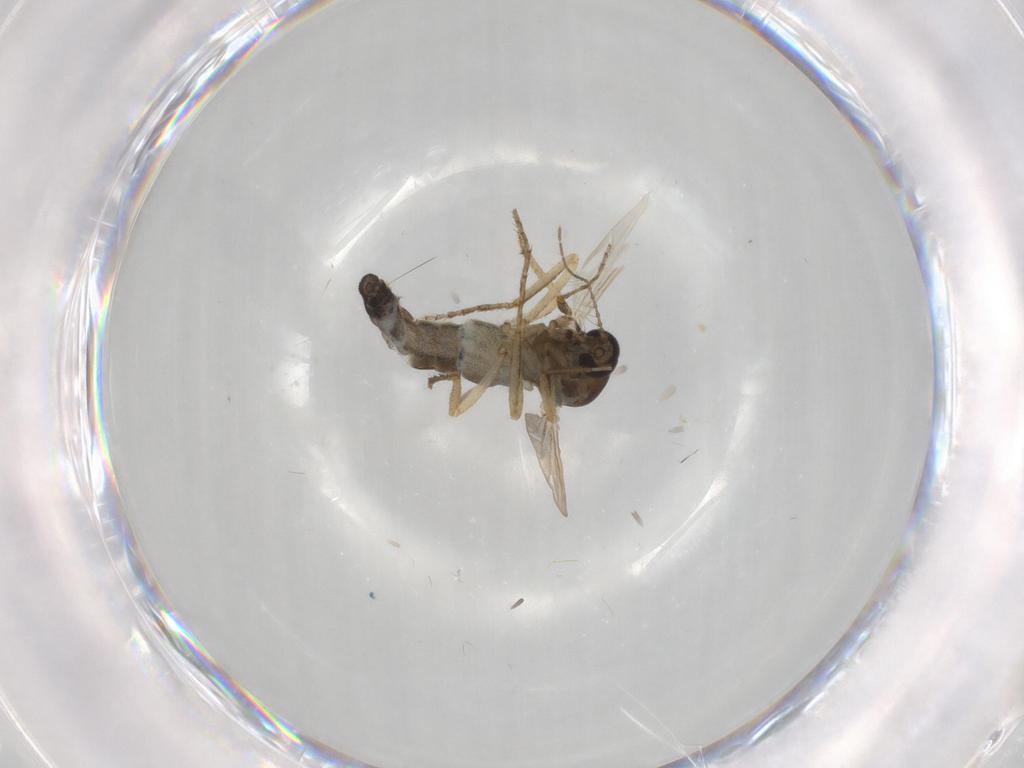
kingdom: Animalia
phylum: Arthropoda
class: Insecta
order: Diptera
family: Ceratopogonidae
